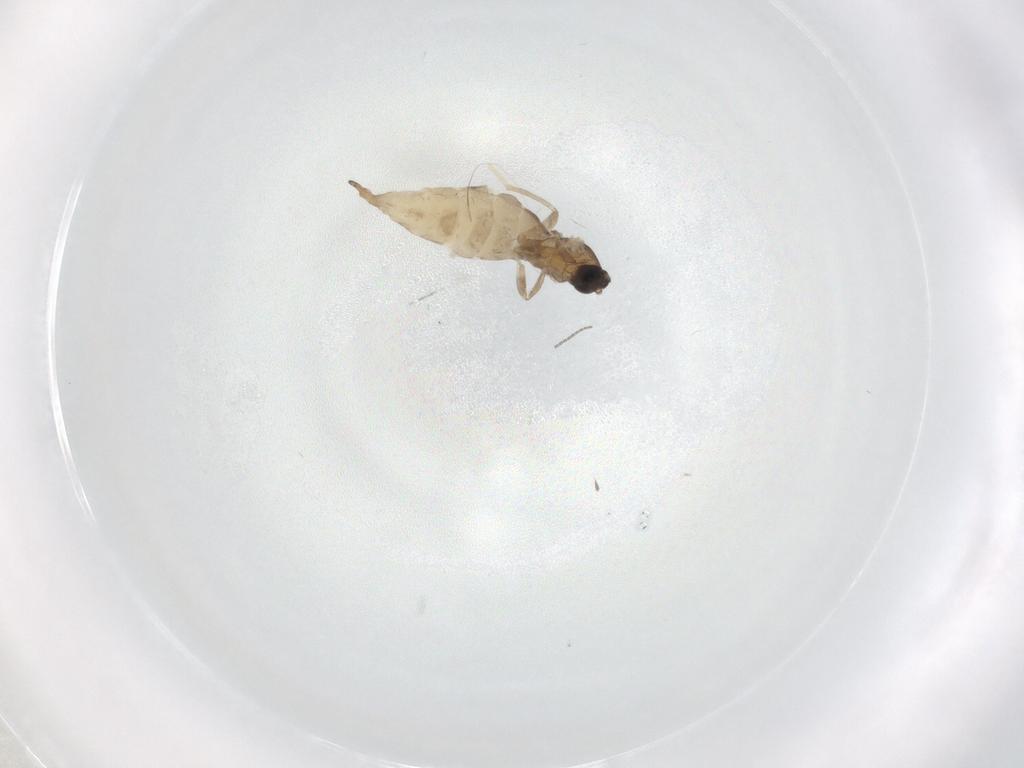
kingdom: Animalia
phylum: Arthropoda
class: Insecta
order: Diptera
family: Cecidomyiidae
